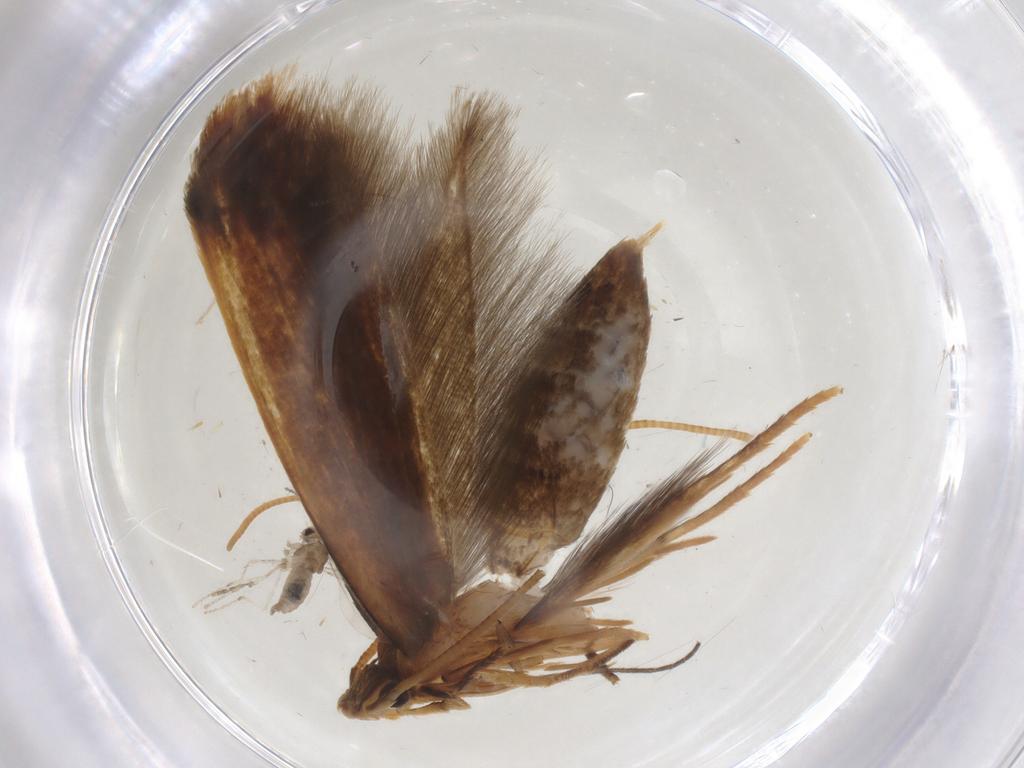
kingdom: Animalia
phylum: Arthropoda
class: Insecta
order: Lepidoptera
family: Tineidae
